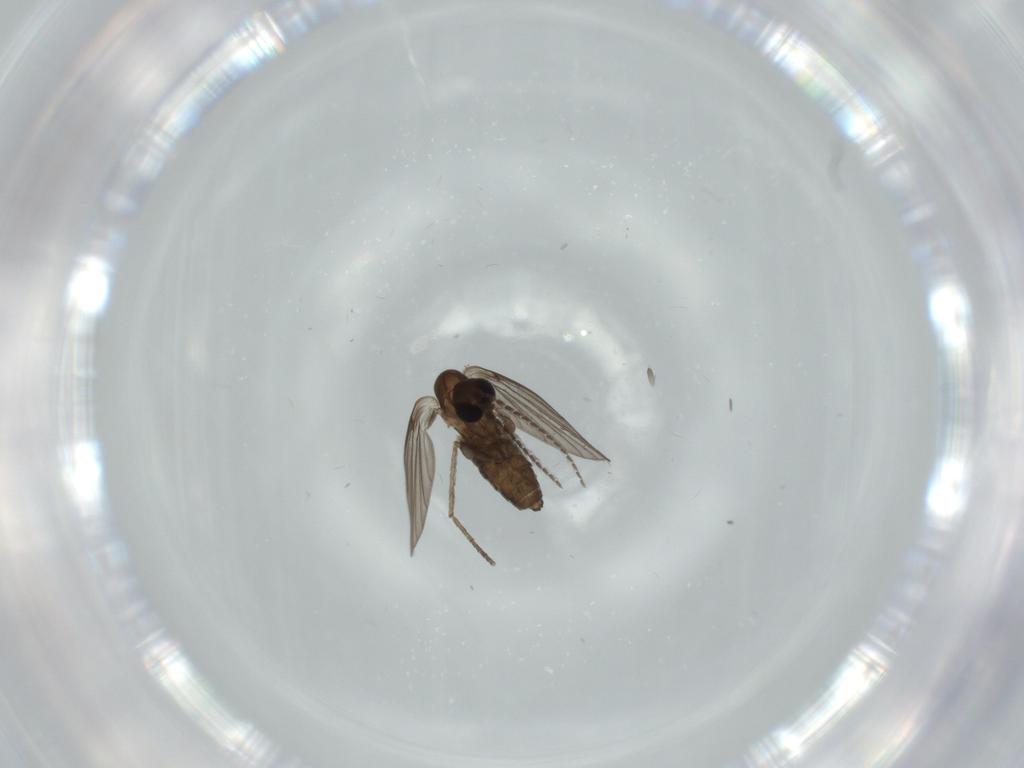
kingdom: Animalia
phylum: Arthropoda
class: Insecta
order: Diptera
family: Psychodidae
